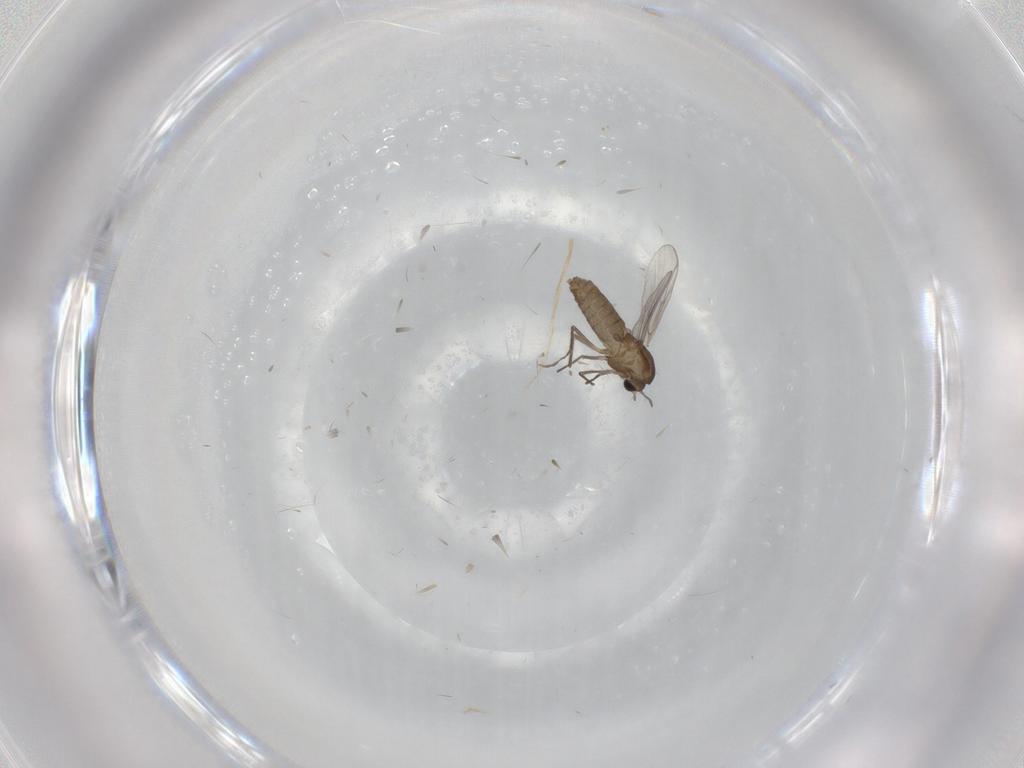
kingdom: Animalia
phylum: Arthropoda
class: Insecta
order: Diptera
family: Chironomidae
